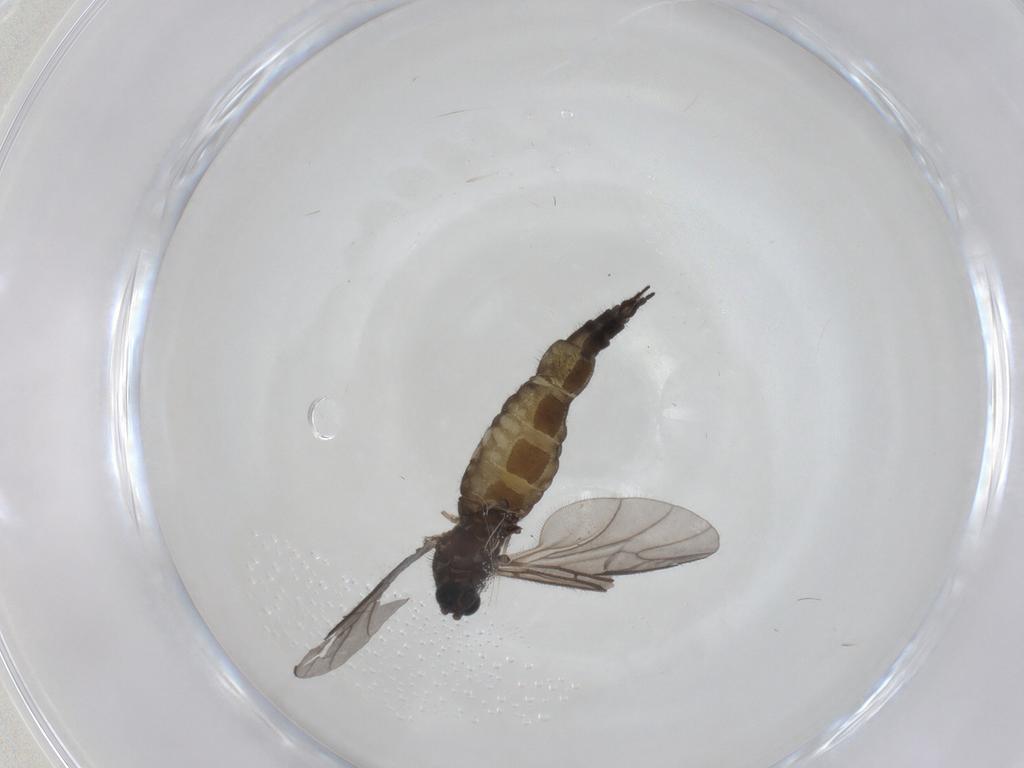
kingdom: Animalia
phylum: Arthropoda
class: Insecta
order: Diptera
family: Sciaridae
